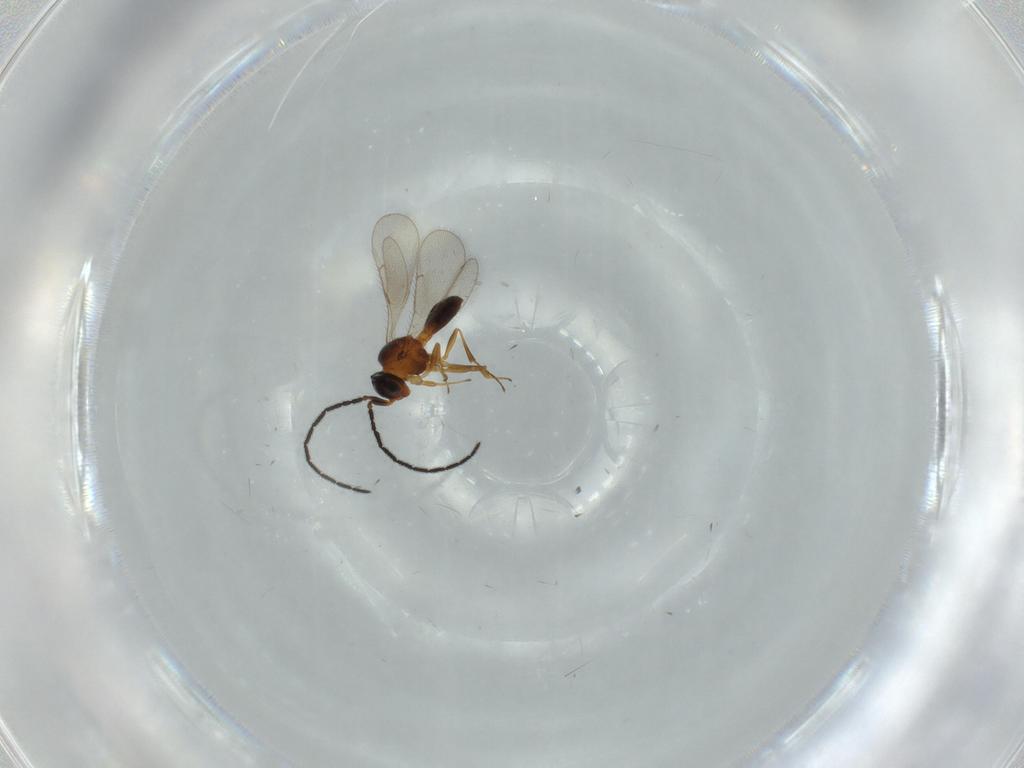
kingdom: Animalia
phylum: Arthropoda
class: Insecta
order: Hymenoptera
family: Scelionidae
